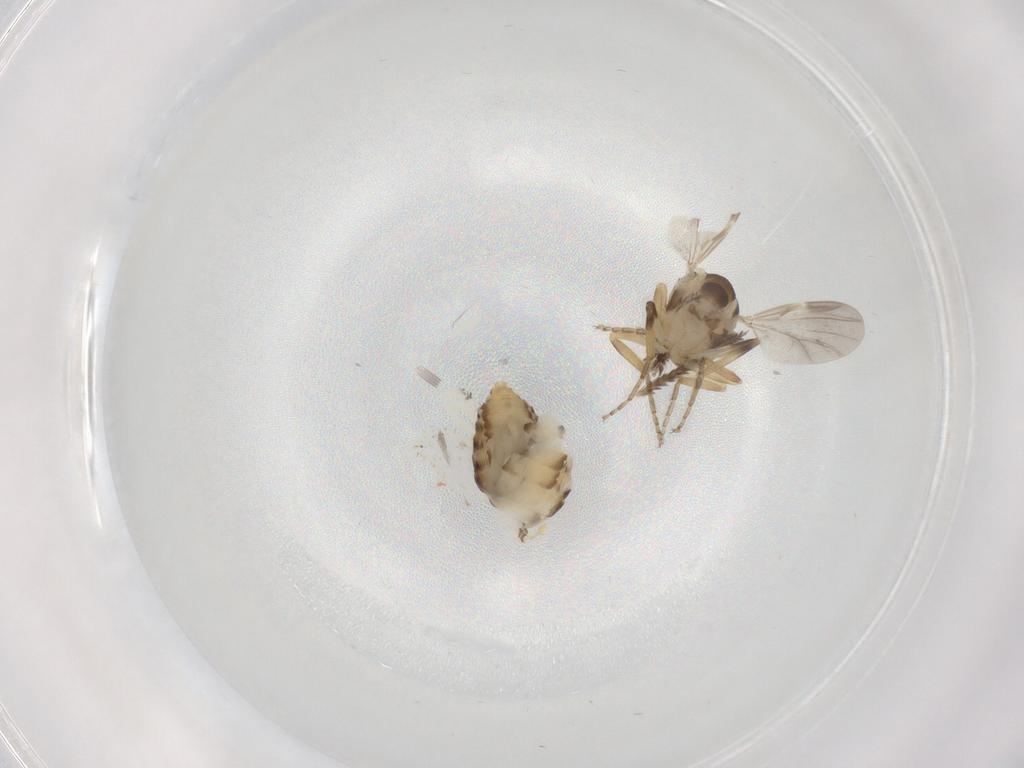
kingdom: Animalia
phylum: Arthropoda
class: Insecta
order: Diptera
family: Ceratopogonidae
